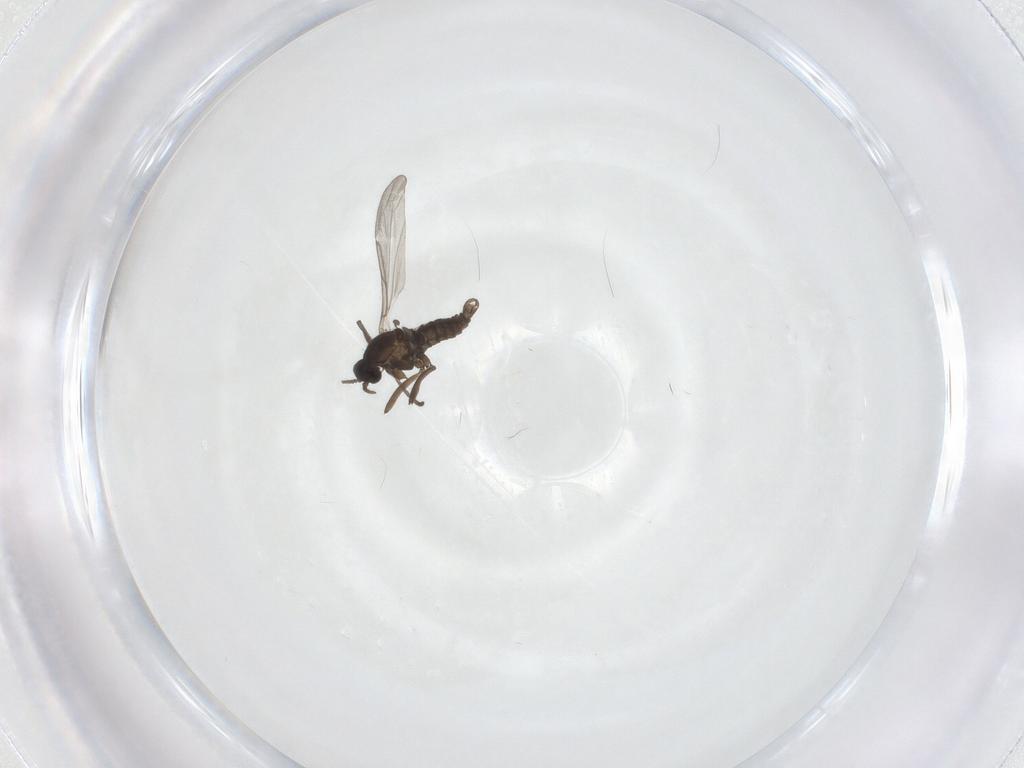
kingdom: Animalia
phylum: Arthropoda
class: Insecta
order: Diptera
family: Cecidomyiidae
